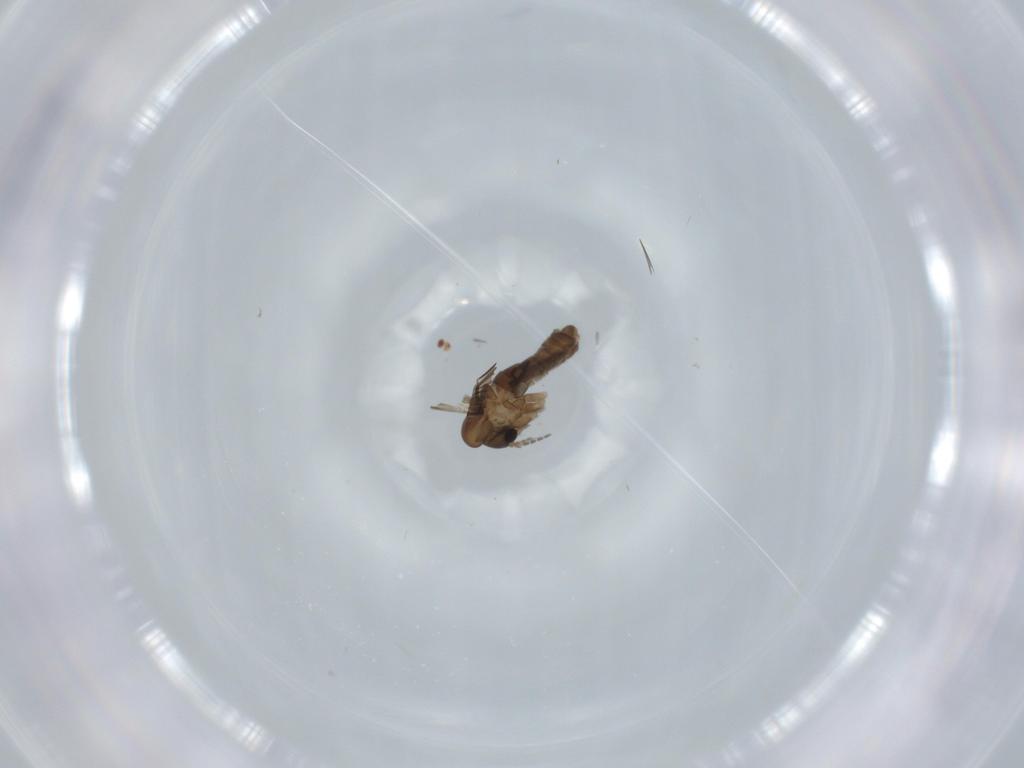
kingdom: Animalia
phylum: Arthropoda
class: Insecta
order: Diptera
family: Psychodidae
